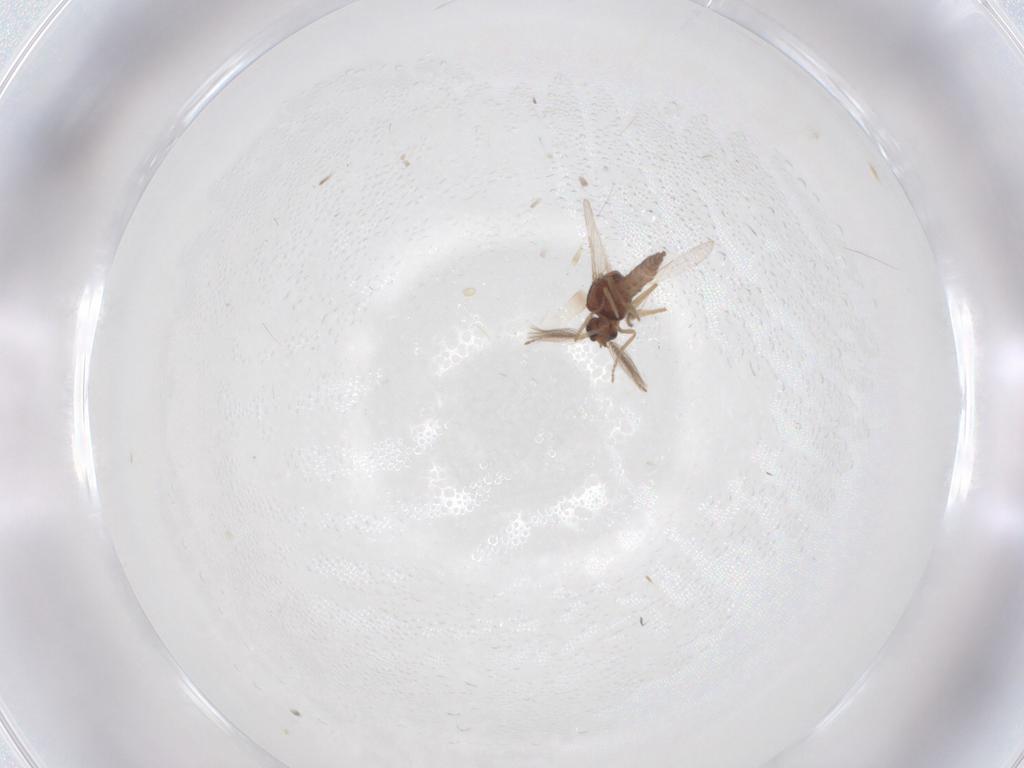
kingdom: Animalia
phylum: Arthropoda
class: Insecta
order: Diptera
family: Ceratopogonidae
